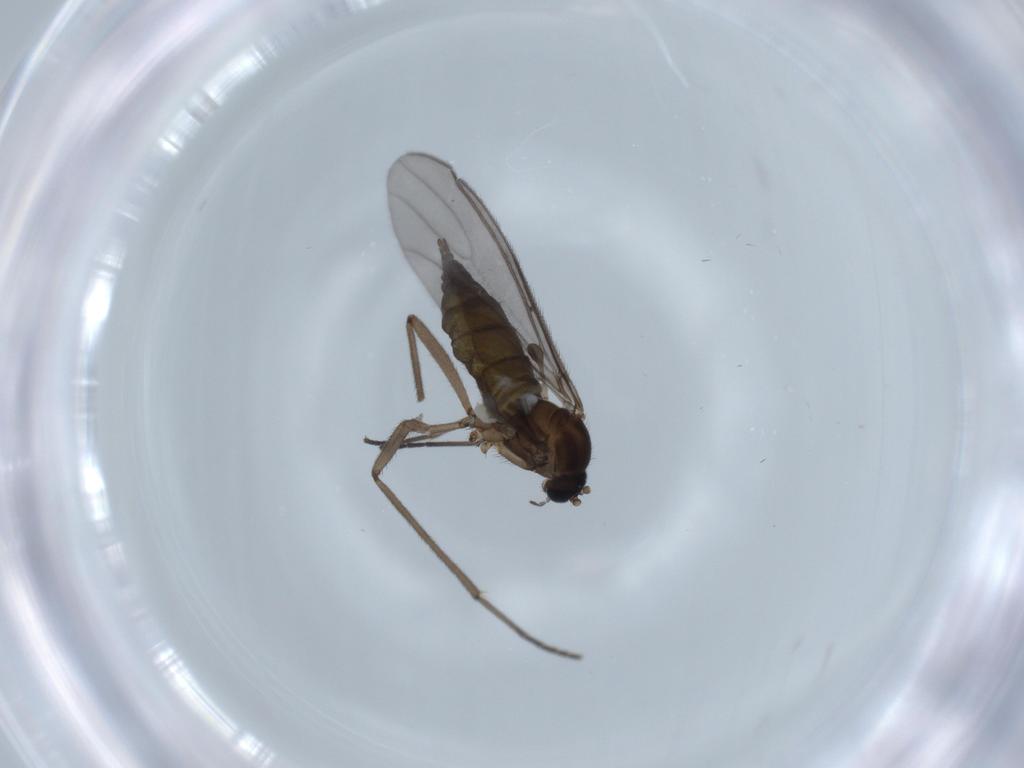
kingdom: Animalia
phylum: Arthropoda
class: Insecta
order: Diptera
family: Sciaridae
